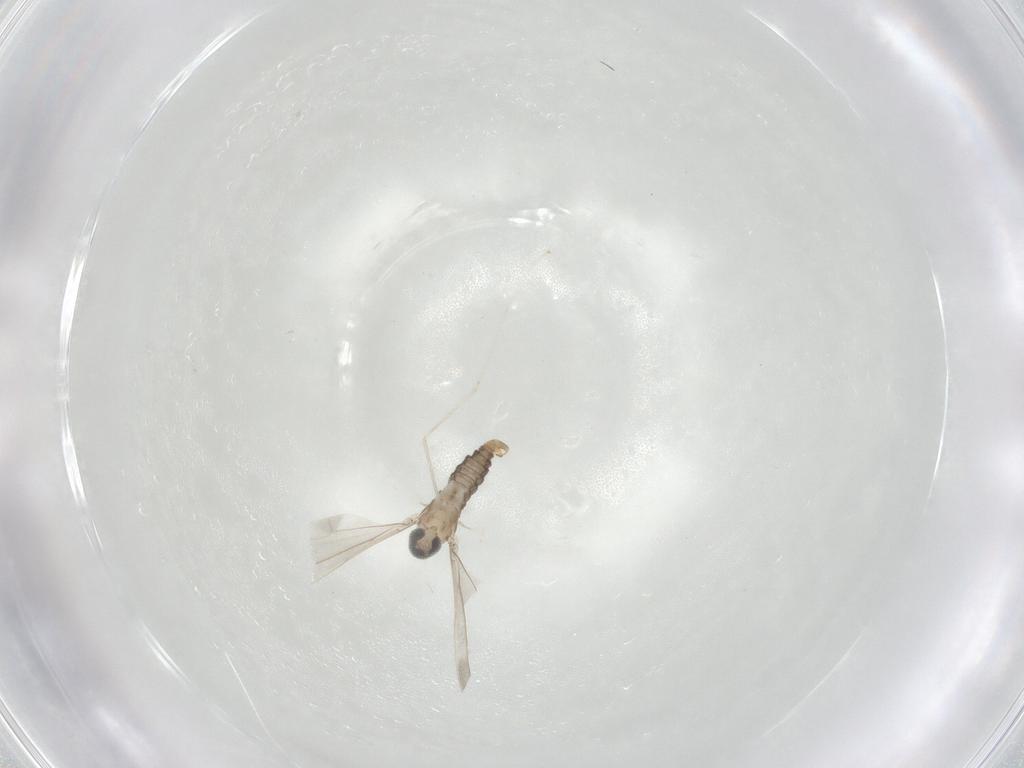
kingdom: Animalia
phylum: Arthropoda
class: Insecta
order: Diptera
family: Cecidomyiidae
